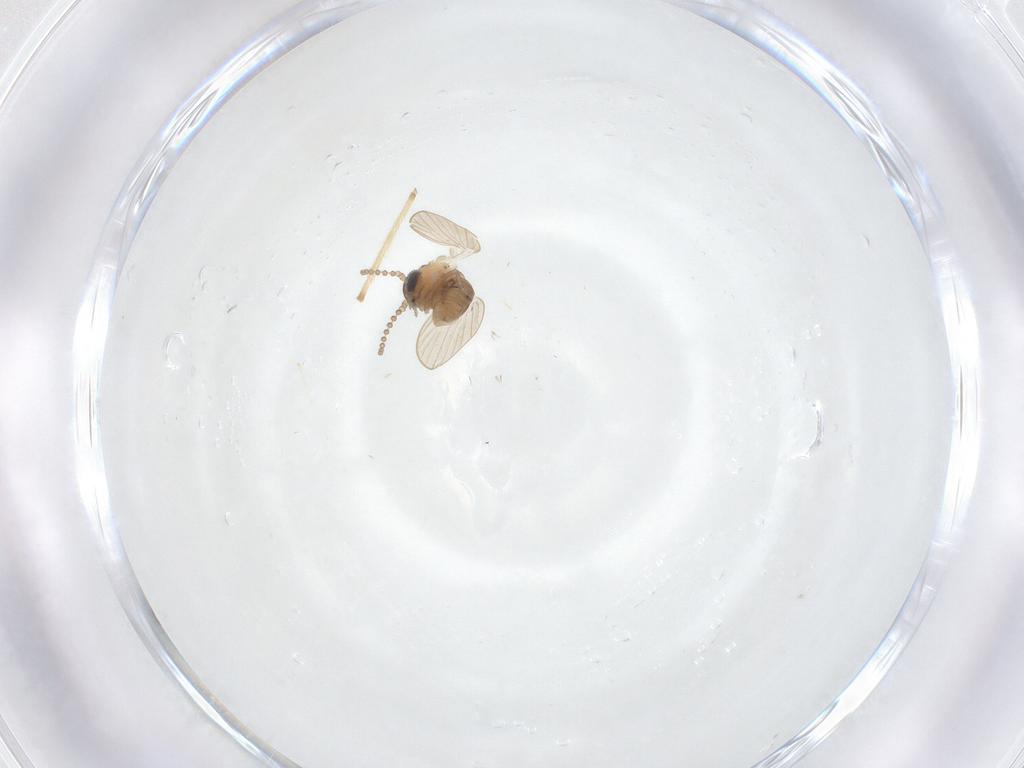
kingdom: Animalia
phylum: Arthropoda
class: Insecta
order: Diptera
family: Psychodidae
